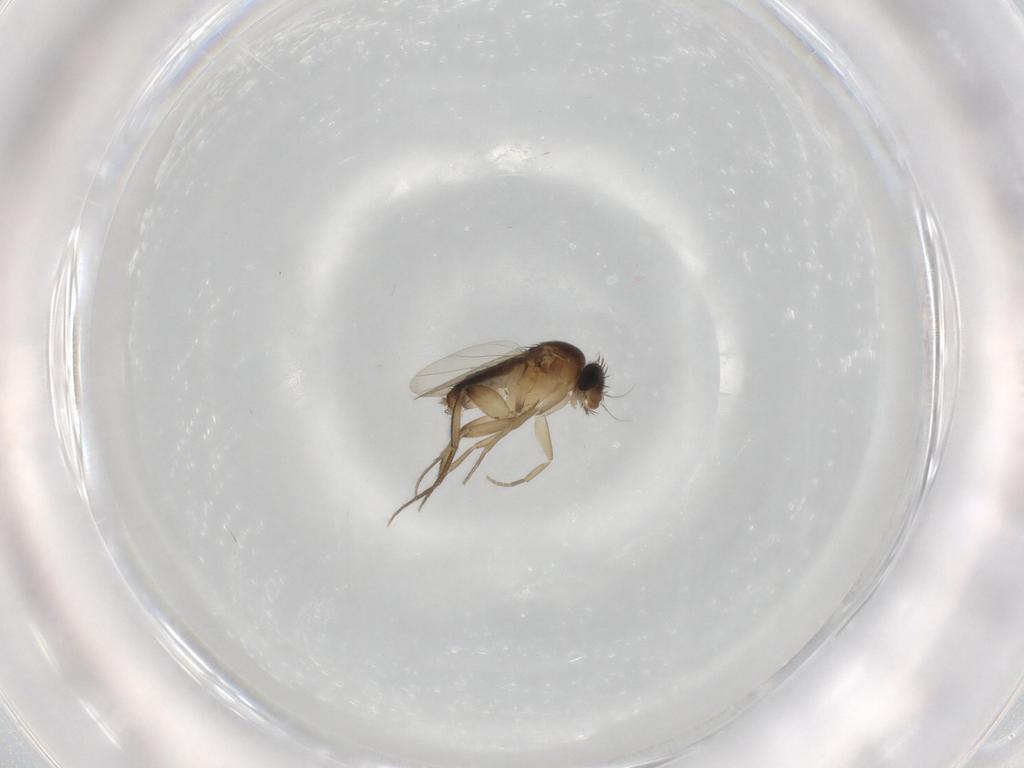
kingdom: Animalia
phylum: Arthropoda
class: Insecta
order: Diptera
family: Phoridae
